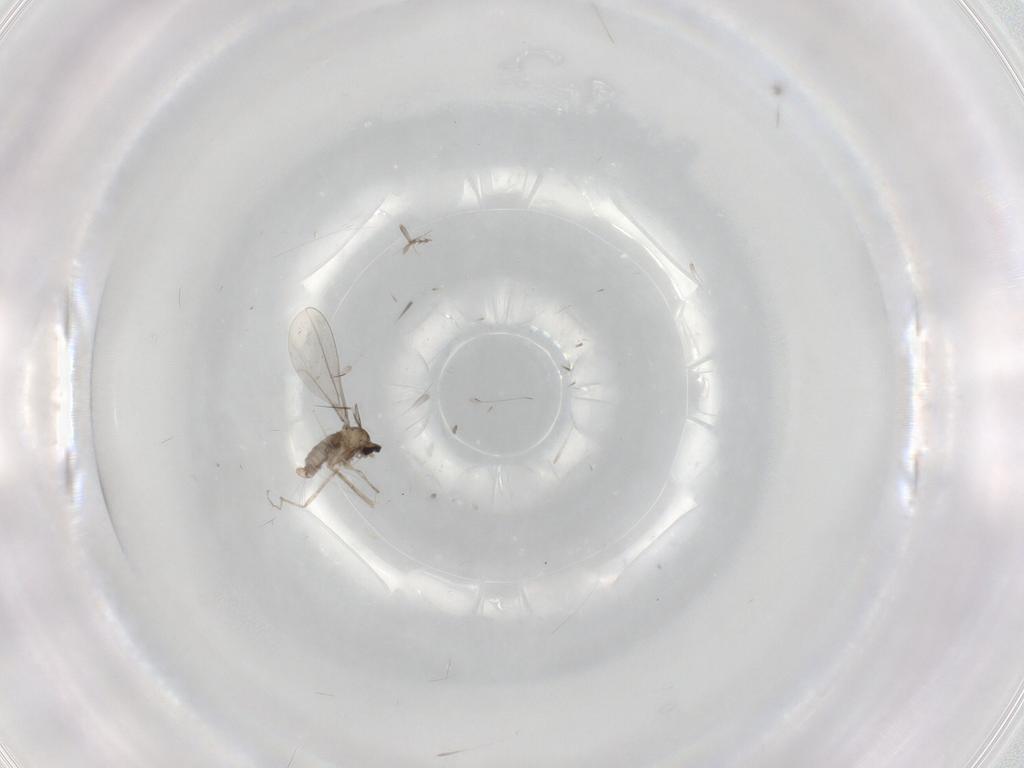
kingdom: Animalia
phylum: Arthropoda
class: Insecta
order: Diptera
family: Cecidomyiidae
